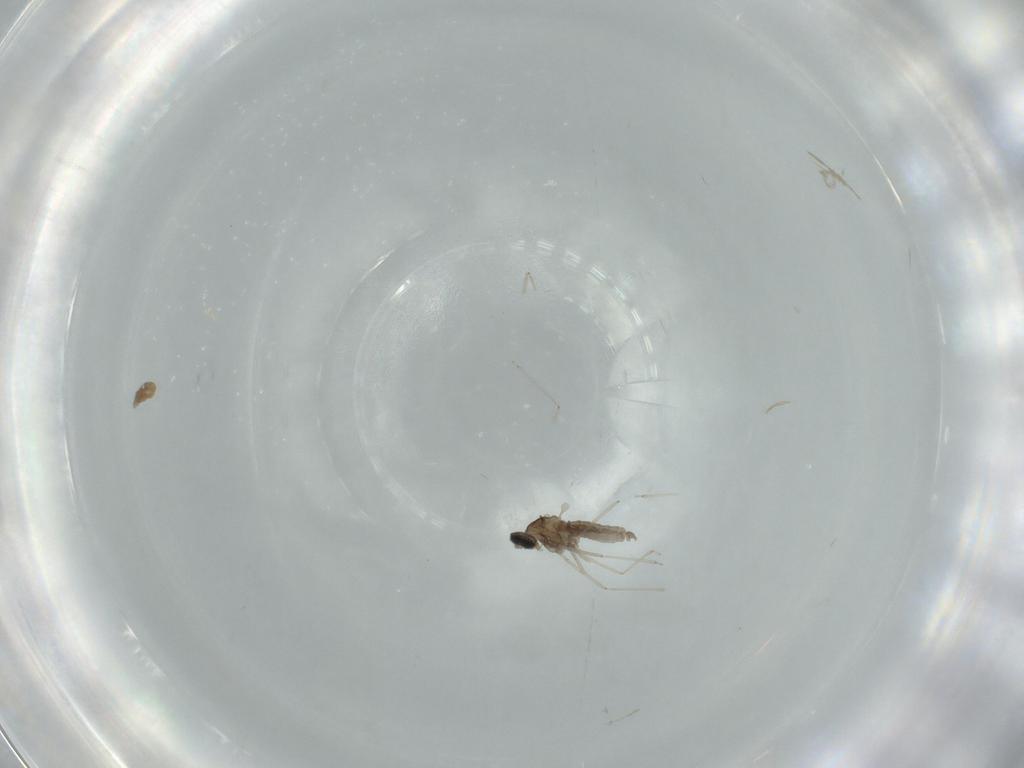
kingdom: Animalia
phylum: Arthropoda
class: Insecta
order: Diptera
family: Cecidomyiidae
